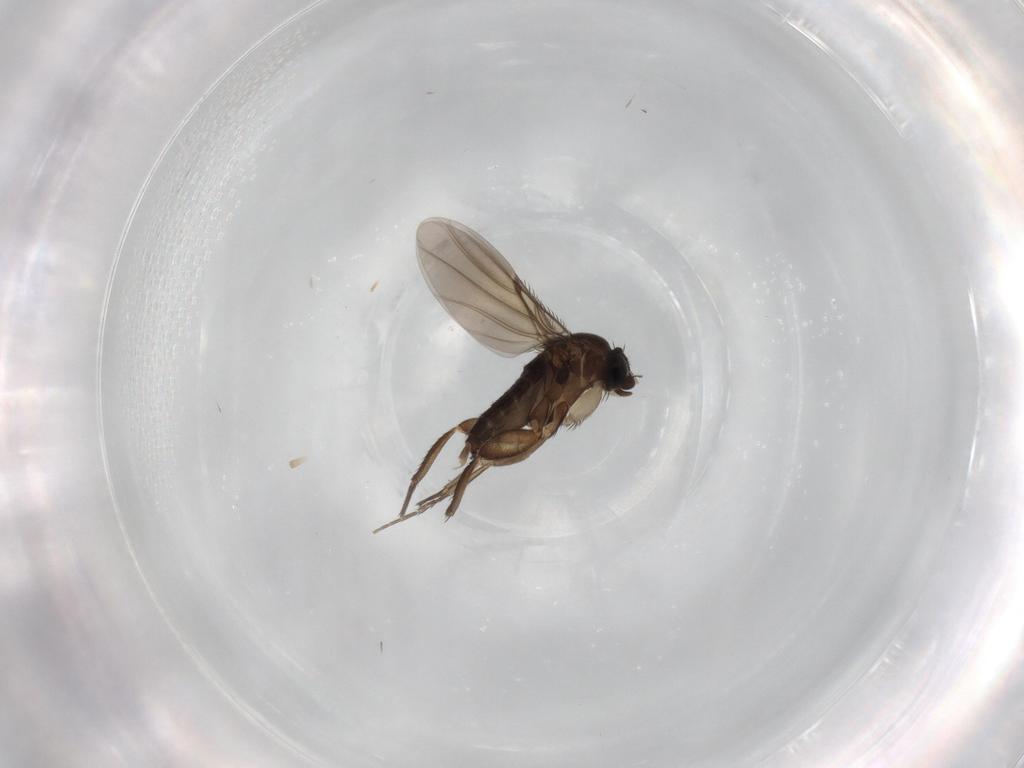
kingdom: Animalia
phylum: Arthropoda
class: Insecta
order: Diptera
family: Phoridae
